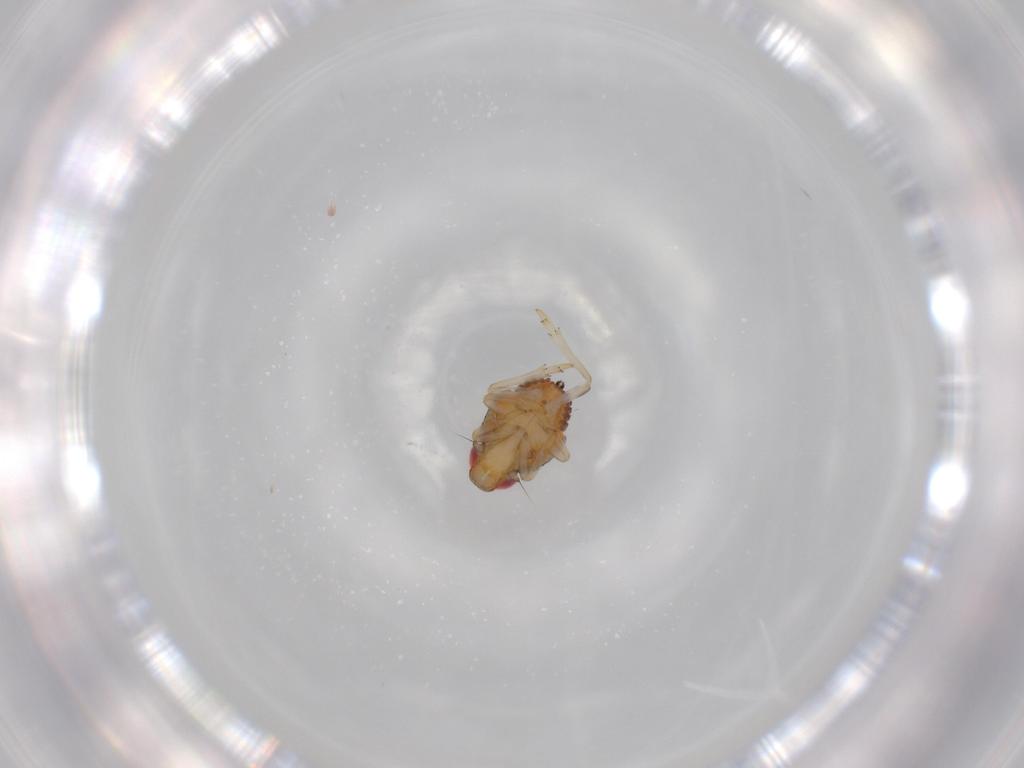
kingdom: Animalia
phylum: Arthropoda
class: Insecta
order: Hemiptera
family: Issidae
